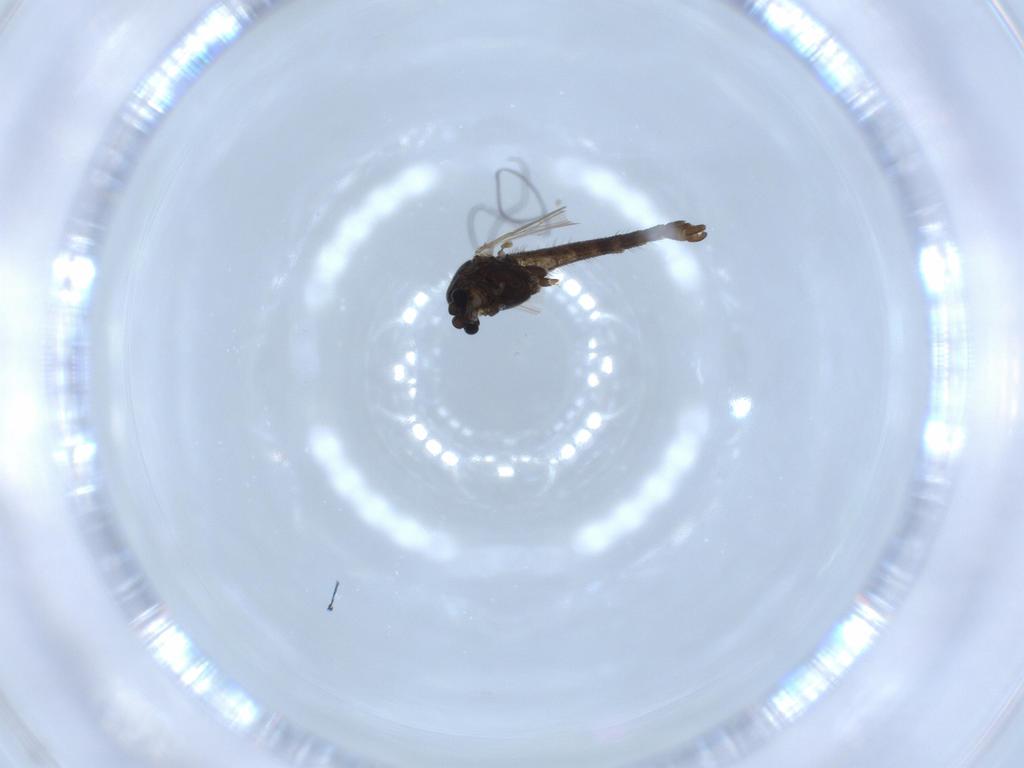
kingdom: Animalia
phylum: Arthropoda
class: Insecta
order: Diptera
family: Chironomidae
